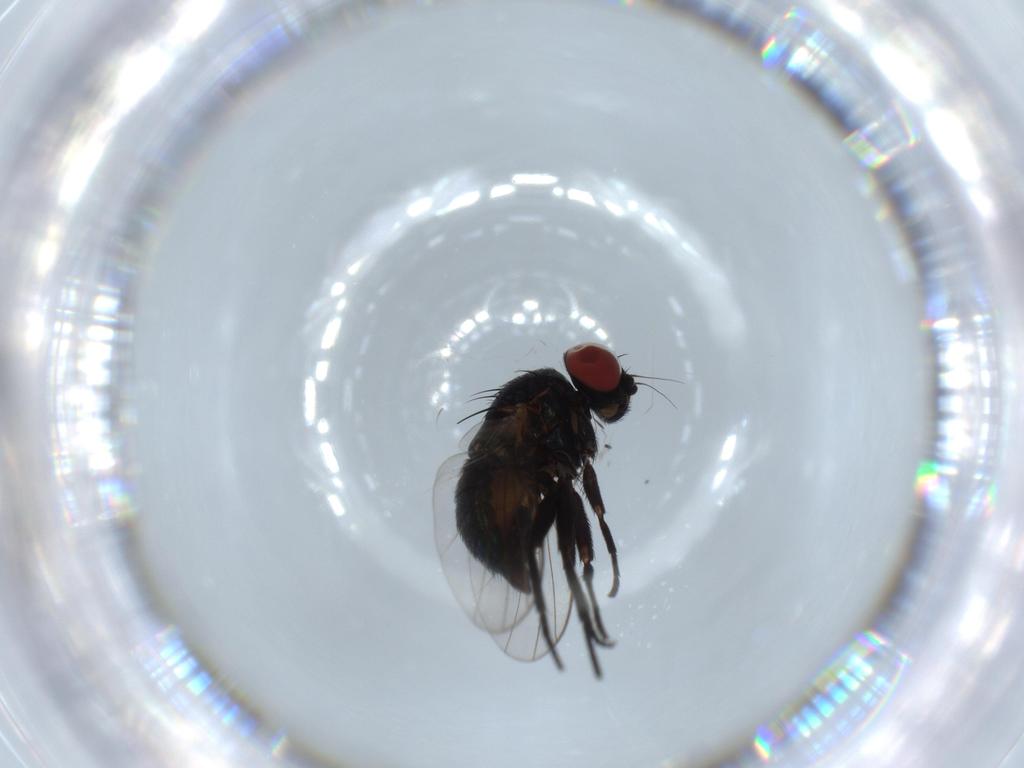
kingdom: Animalia
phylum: Arthropoda
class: Insecta
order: Diptera
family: Agromyzidae
